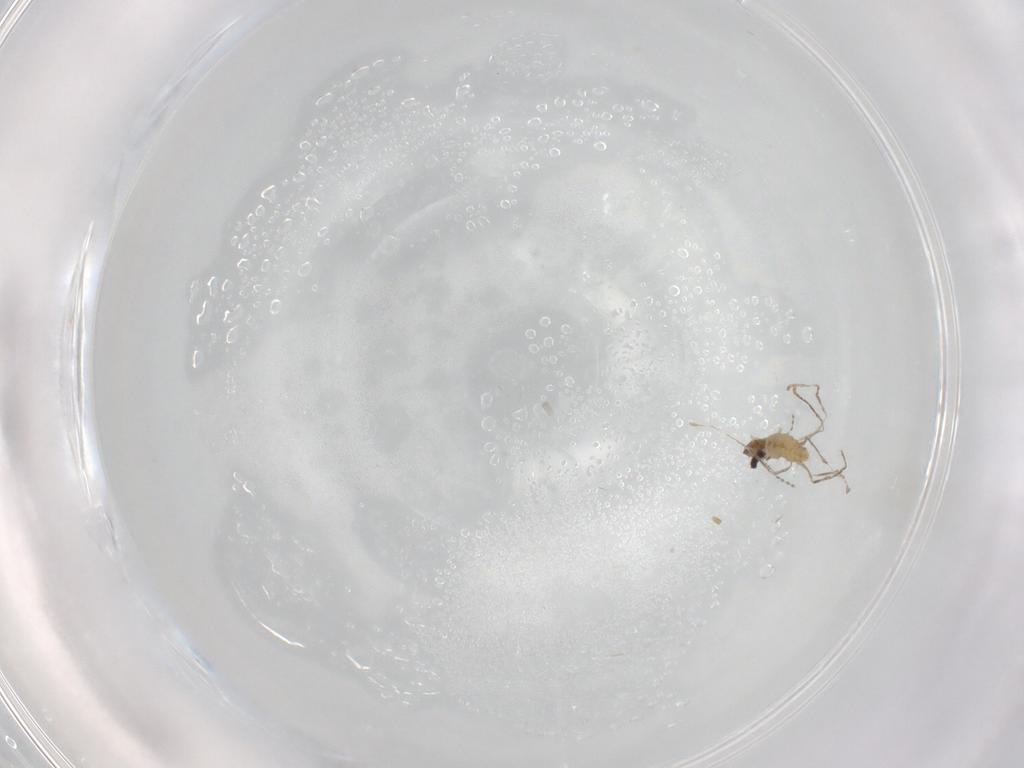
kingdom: Animalia
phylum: Arthropoda
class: Insecta
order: Diptera
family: Cecidomyiidae
